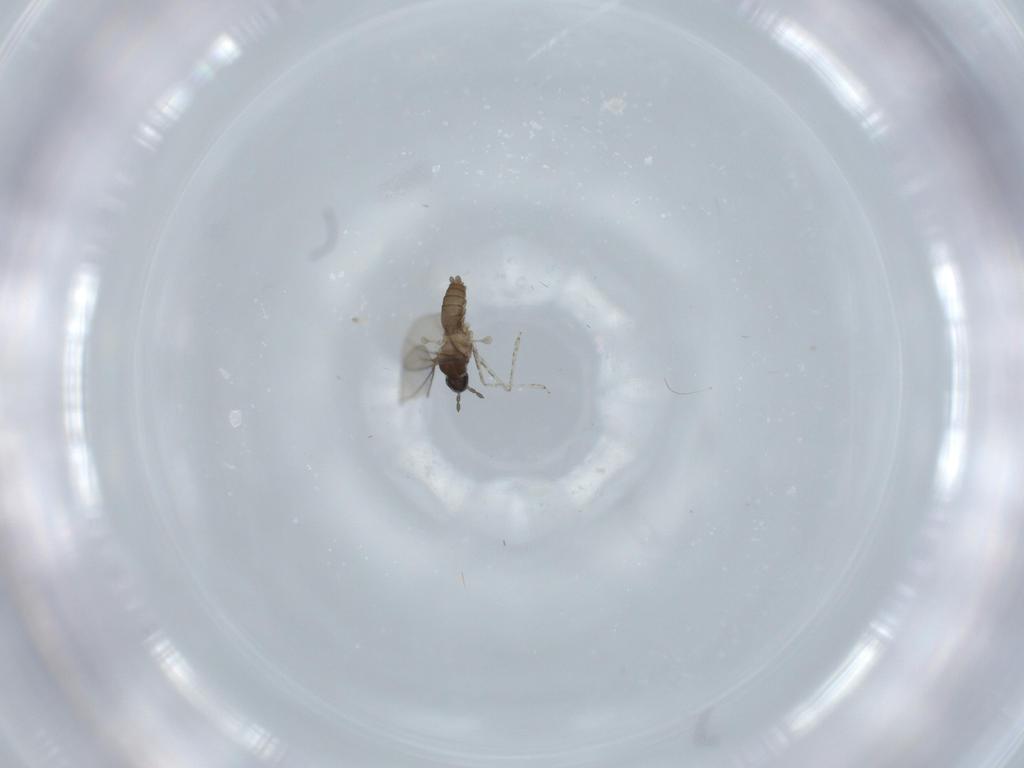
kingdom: Animalia
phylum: Arthropoda
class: Insecta
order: Diptera
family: Cecidomyiidae
